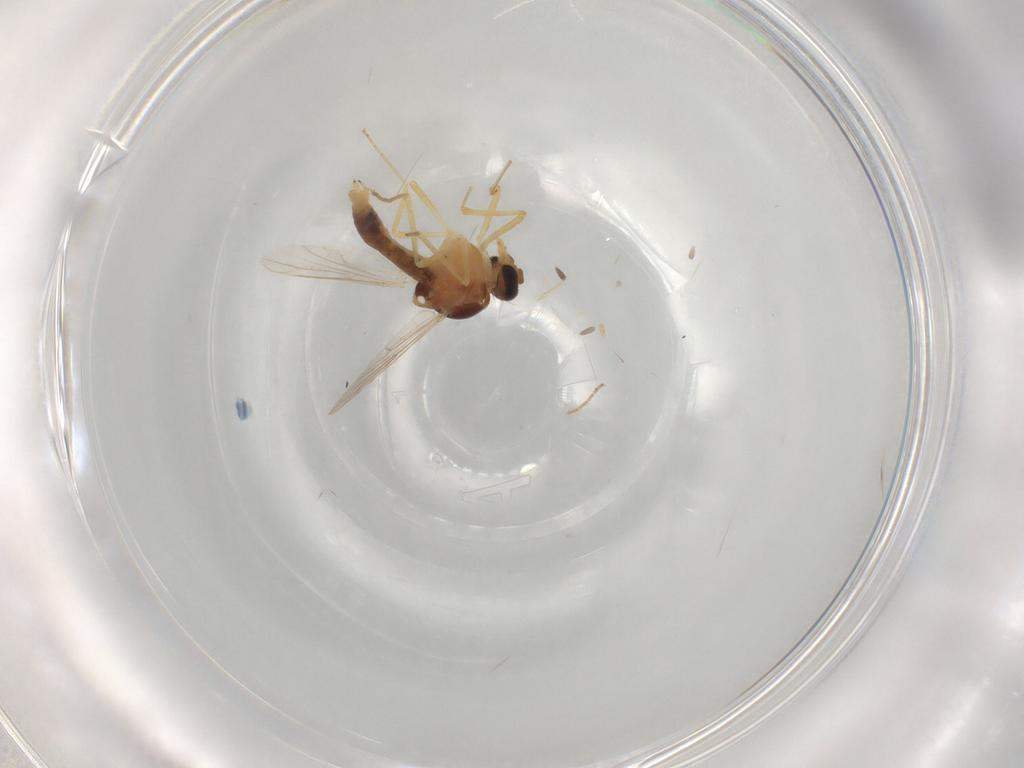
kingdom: Animalia
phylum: Arthropoda
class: Insecta
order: Diptera
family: Ceratopogonidae
